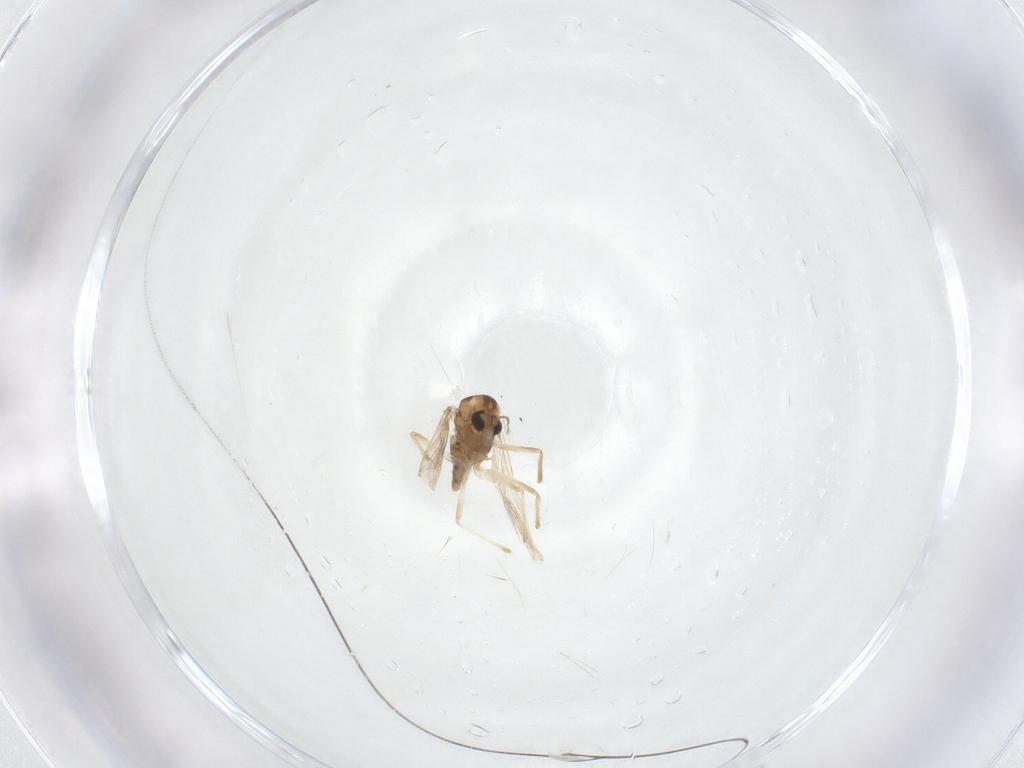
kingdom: Animalia
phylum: Arthropoda
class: Insecta
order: Diptera
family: Chironomidae
